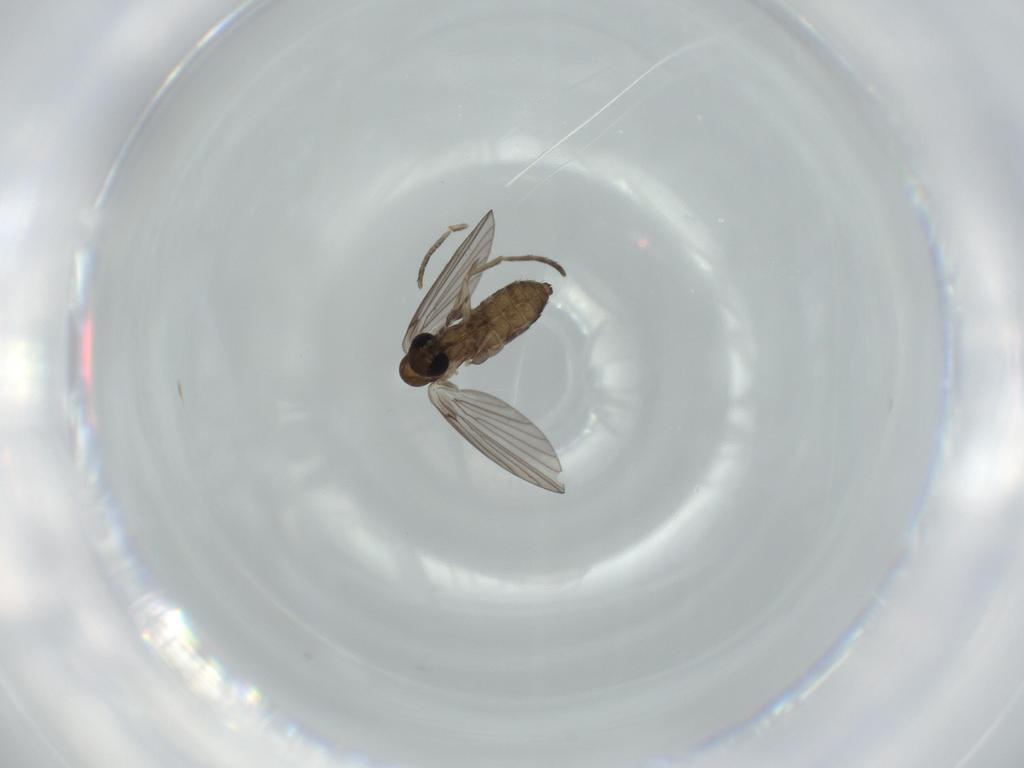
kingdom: Animalia
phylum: Arthropoda
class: Insecta
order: Diptera
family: Psychodidae
